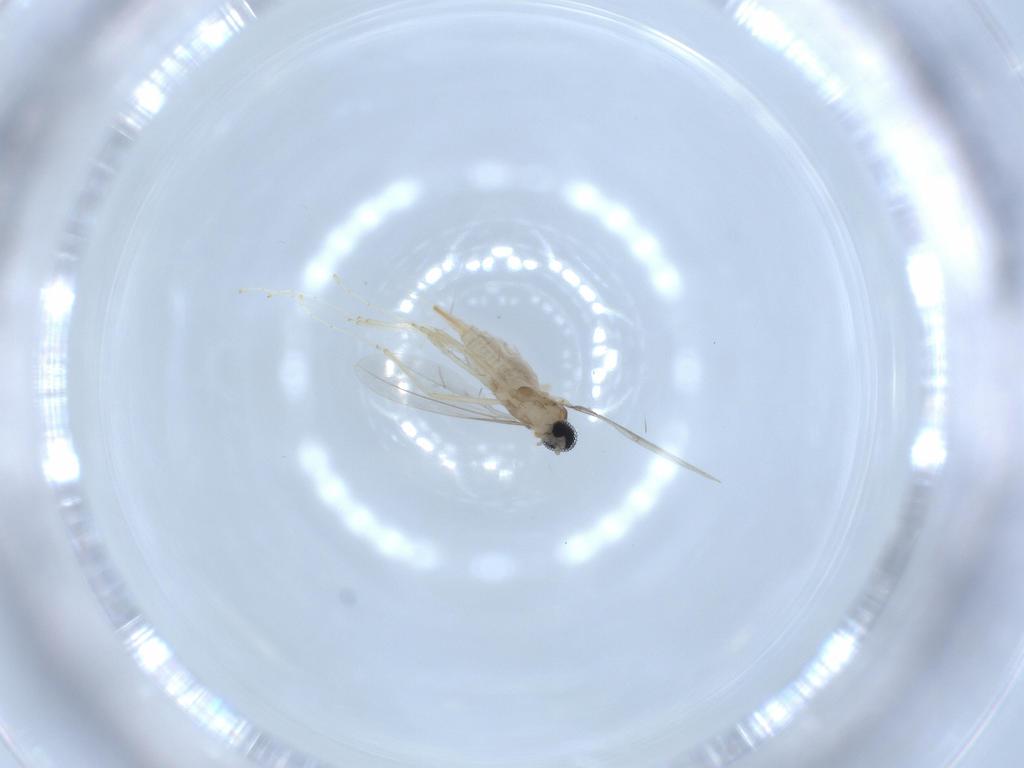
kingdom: Animalia
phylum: Arthropoda
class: Insecta
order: Diptera
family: Cecidomyiidae
